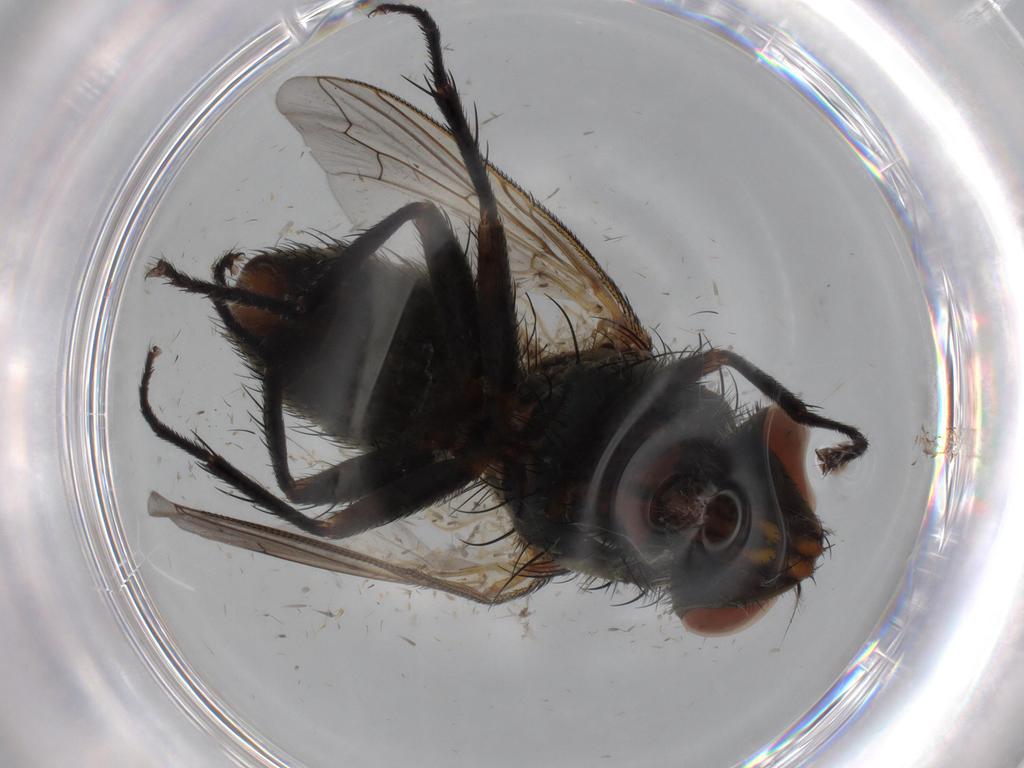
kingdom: Animalia
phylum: Arthropoda
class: Insecta
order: Diptera
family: Sarcophagidae
